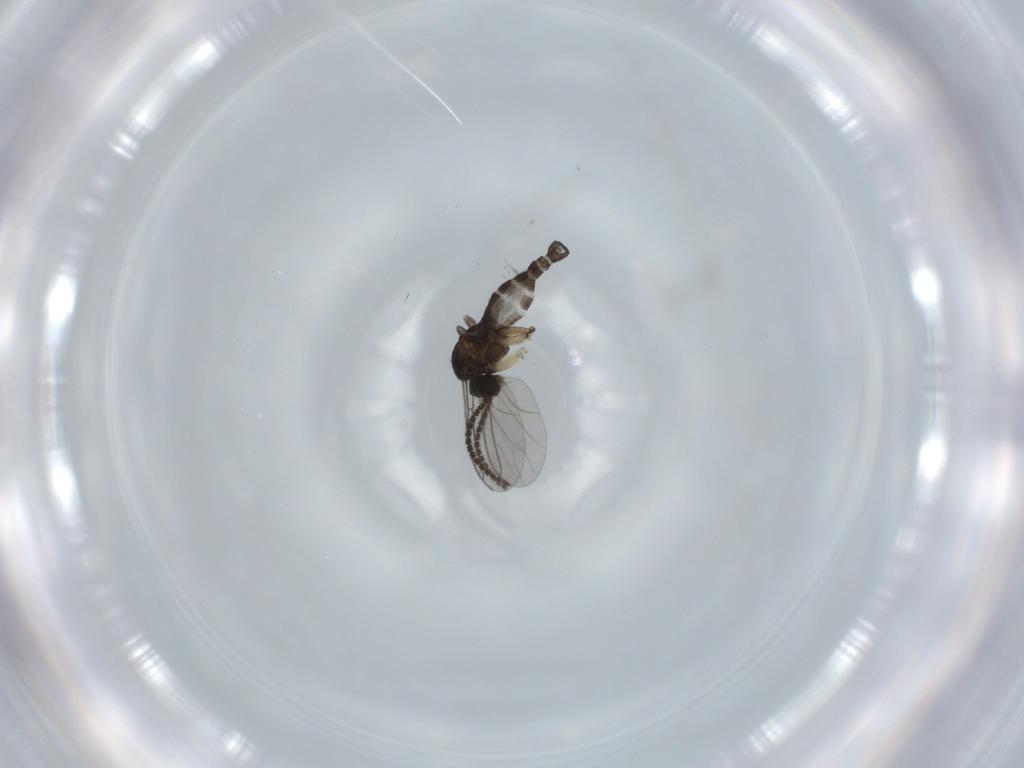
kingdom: Animalia
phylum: Arthropoda
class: Insecta
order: Diptera
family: Sciaridae
